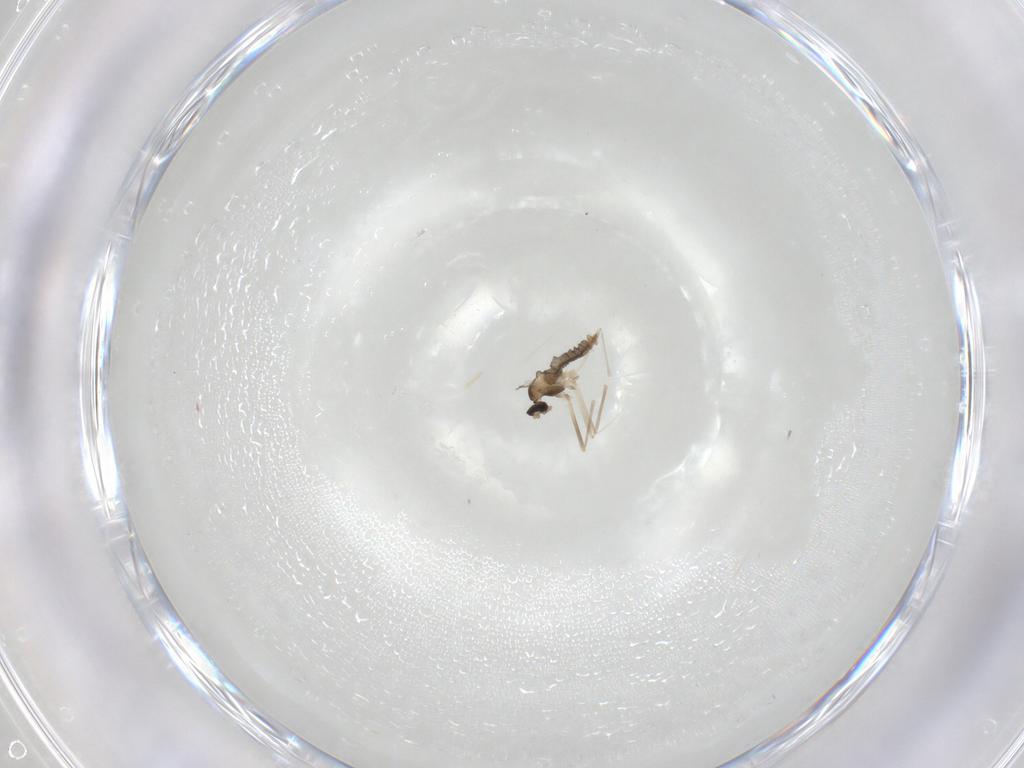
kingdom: Animalia
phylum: Arthropoda
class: Insecta
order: Diptera
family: Cecidomyiidae
